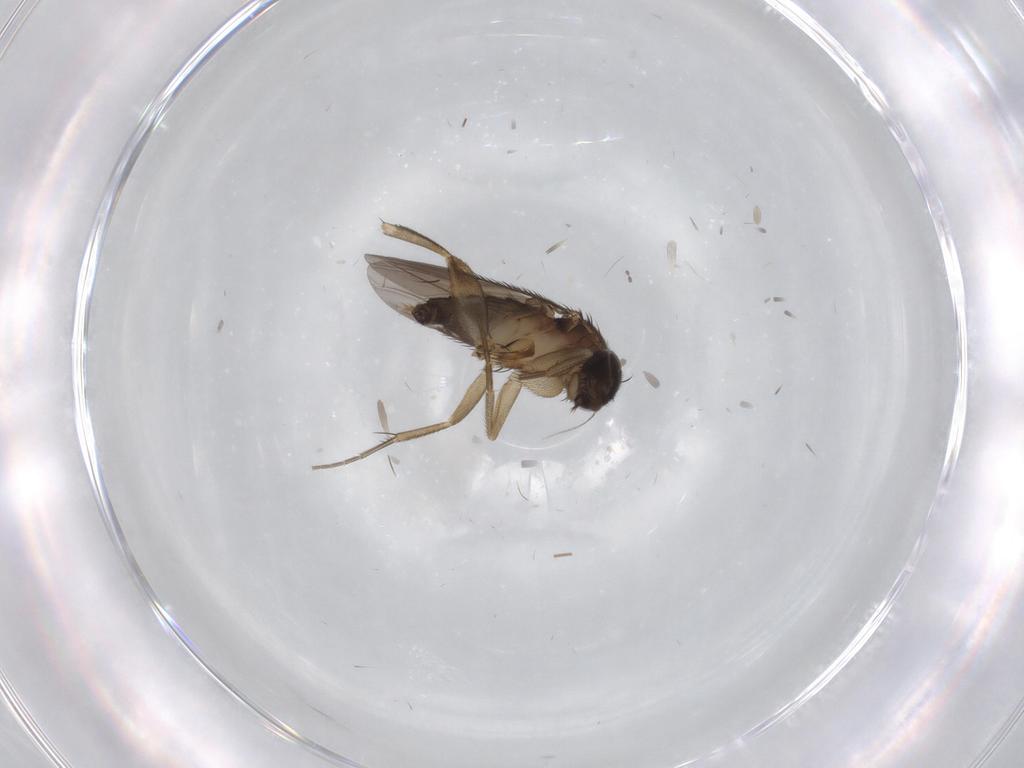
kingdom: Animalia
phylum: Arthropoda
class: Insecta
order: Diptera
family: Phoridae
